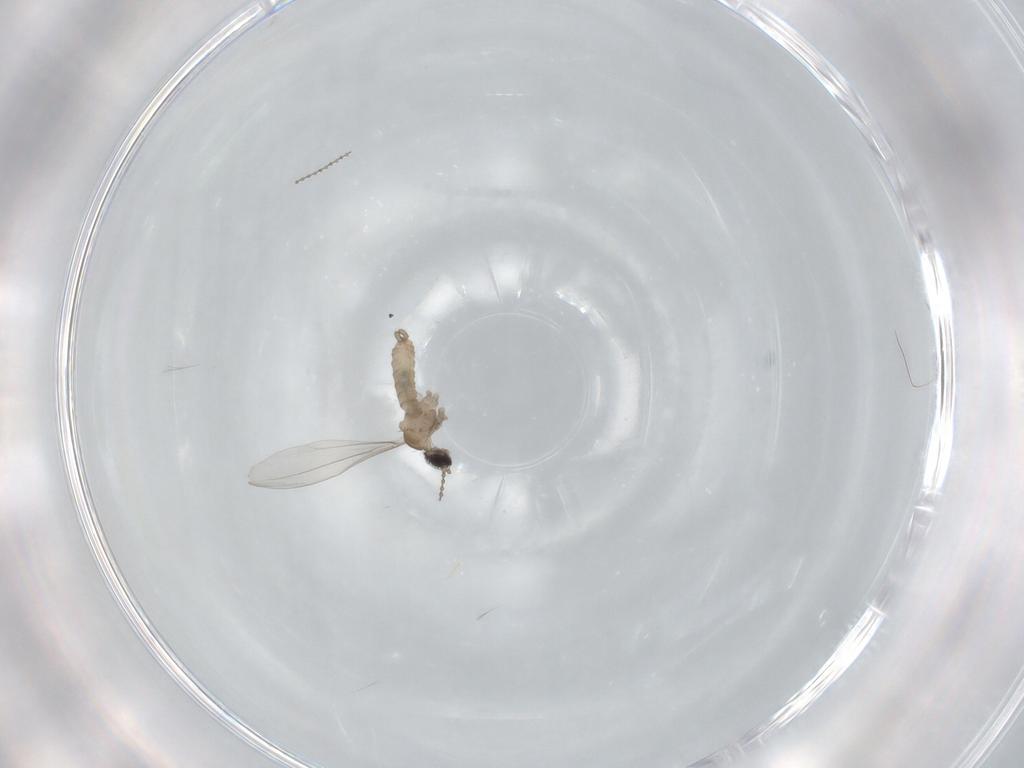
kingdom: Animalia
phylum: Arthropoda
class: Insecta
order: Diptera
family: Cecidomyiidae
